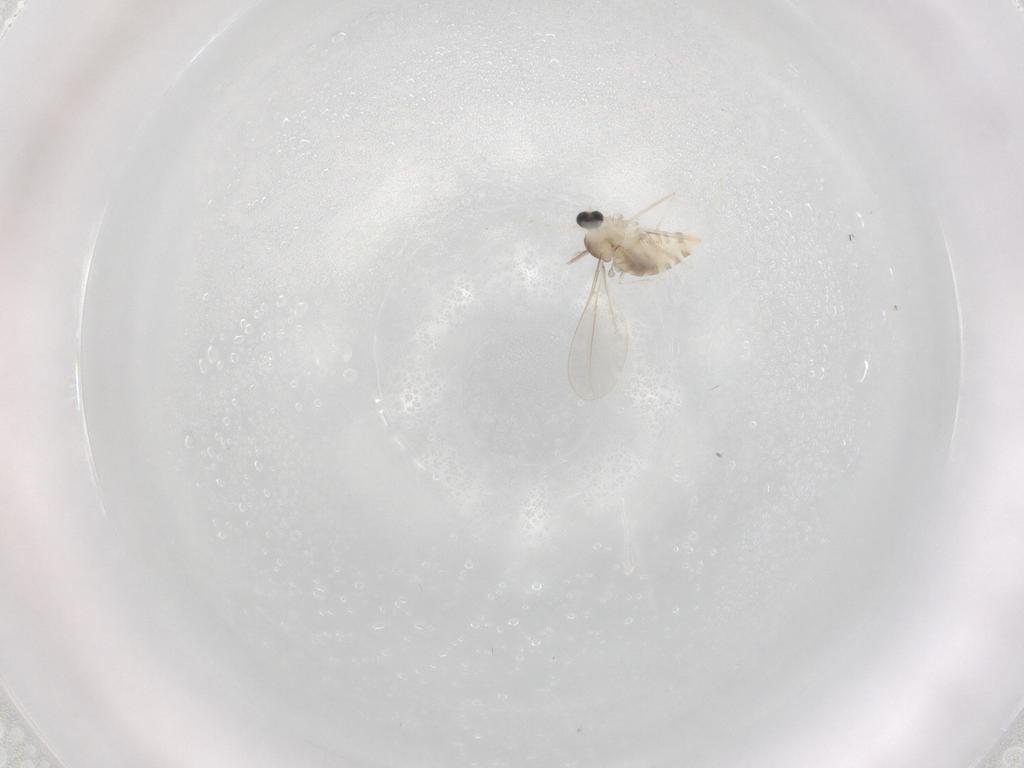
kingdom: Animalia
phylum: Arthropoda
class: Insecta
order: Diptera
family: Cecidomyiidae
